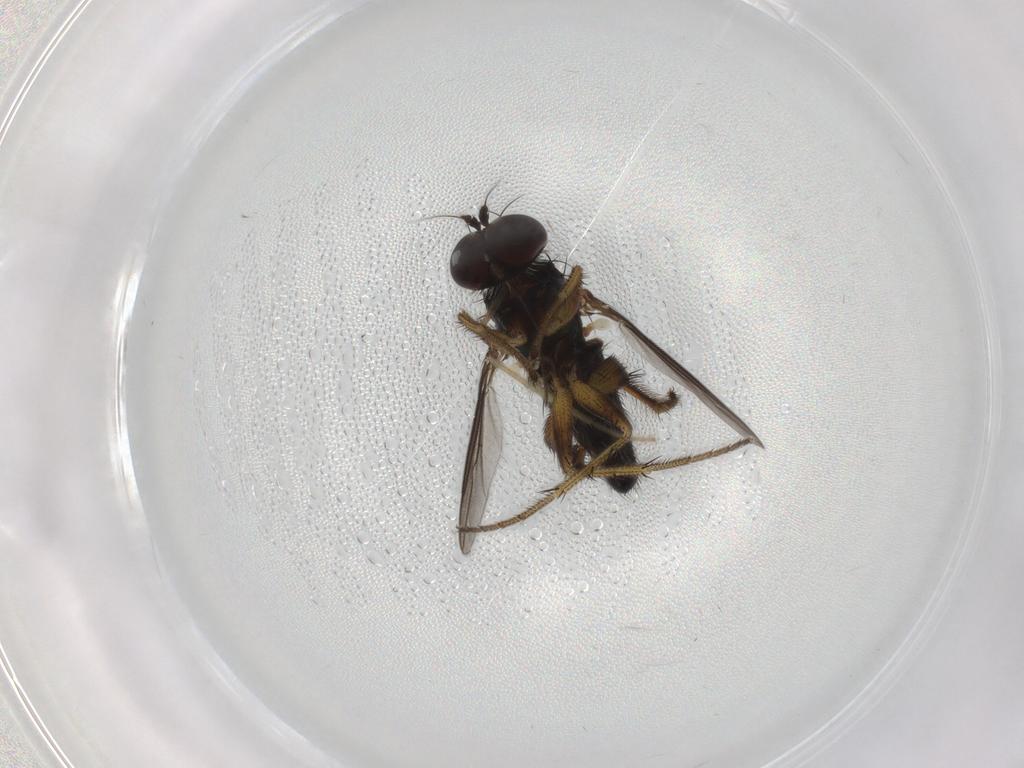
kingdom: Animalia
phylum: Arthropoda
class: Insecta
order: Diptera
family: Dolichopodidae
